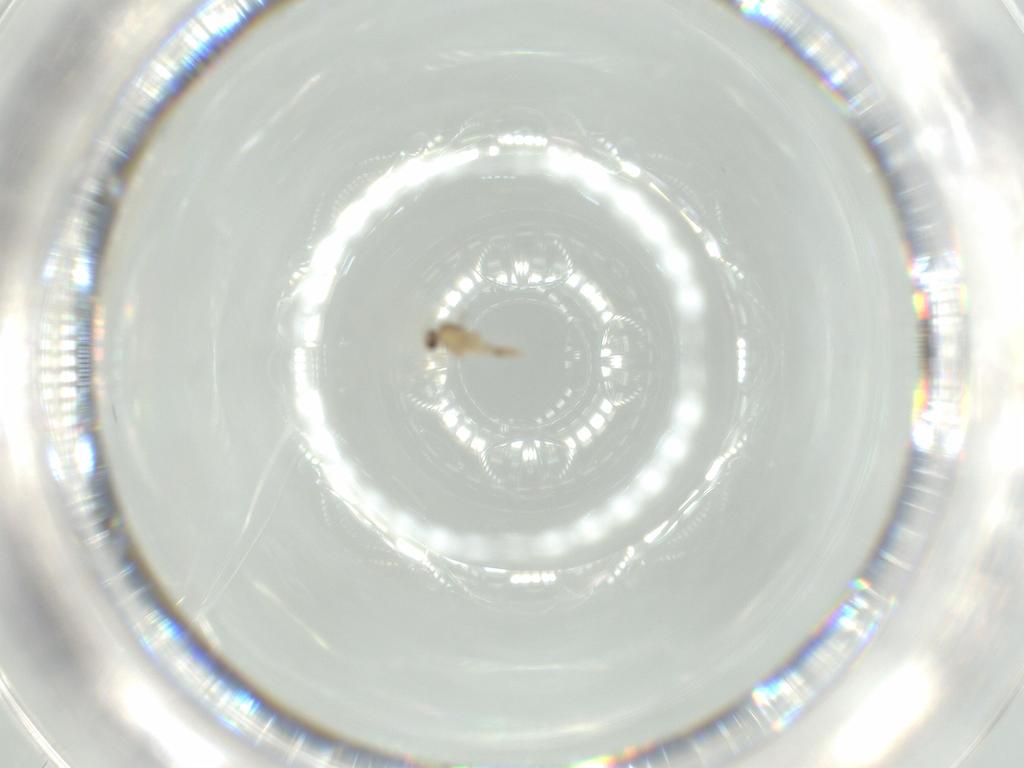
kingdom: Animalia
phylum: Arthropoda
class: Insecta
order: Diptera
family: Cecidomyiidae
